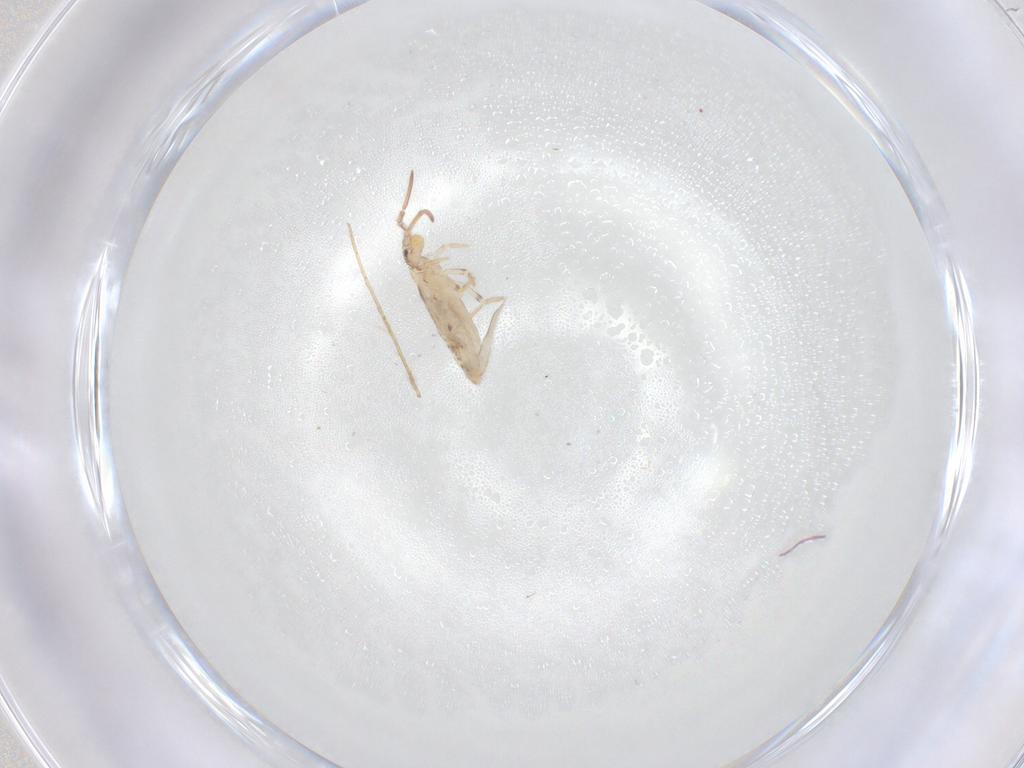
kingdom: Animalia
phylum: Arthropoda
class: Collembola
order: Entomobryomorpha
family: Entomobryidae
